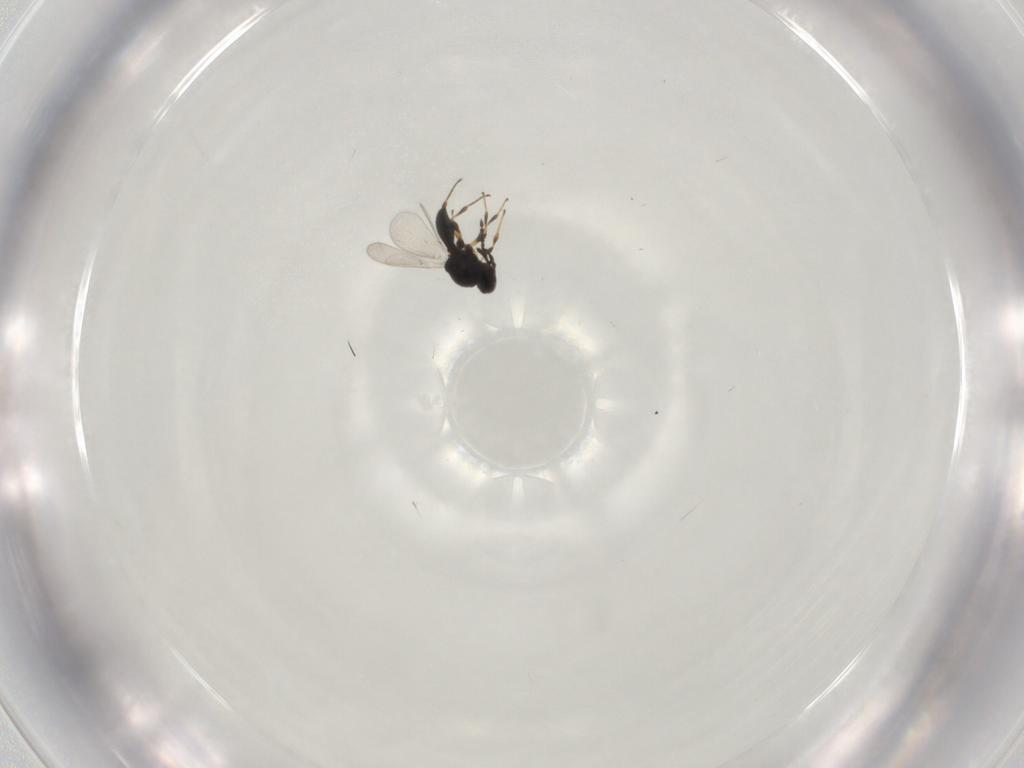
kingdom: Animalia
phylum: Arthropoda
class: Insecta
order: Hymenoptera
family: Platygastridae
